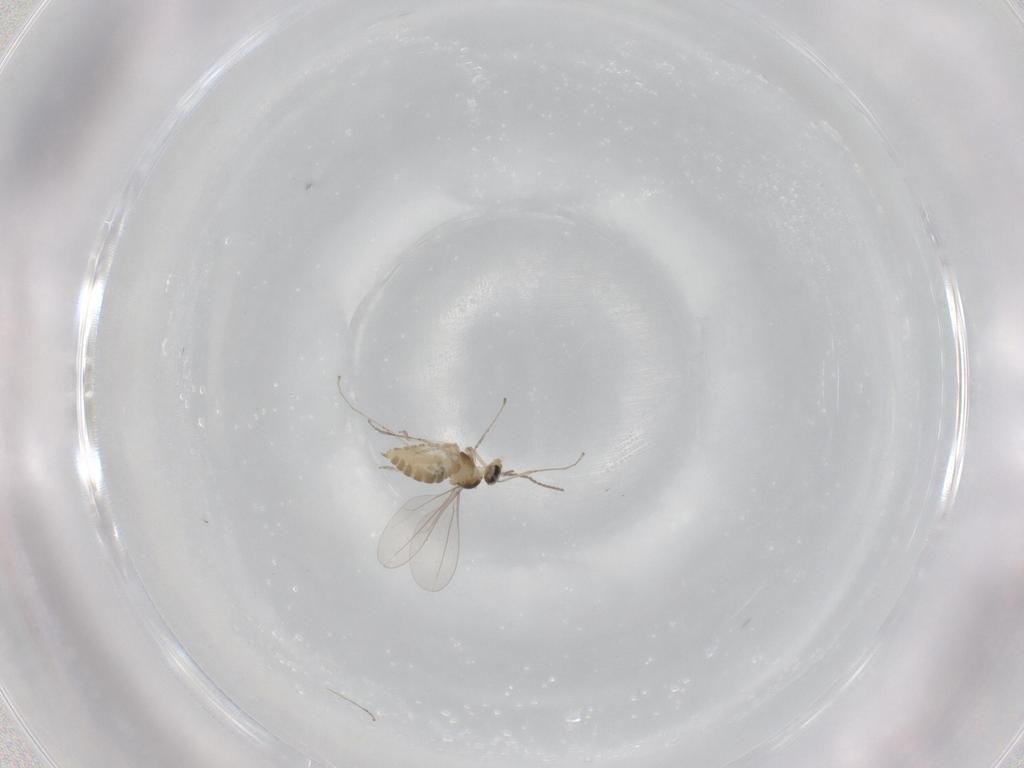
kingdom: Animalia
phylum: Arthropoda
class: Insecta
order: Diptera
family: Cecidomyiidae
